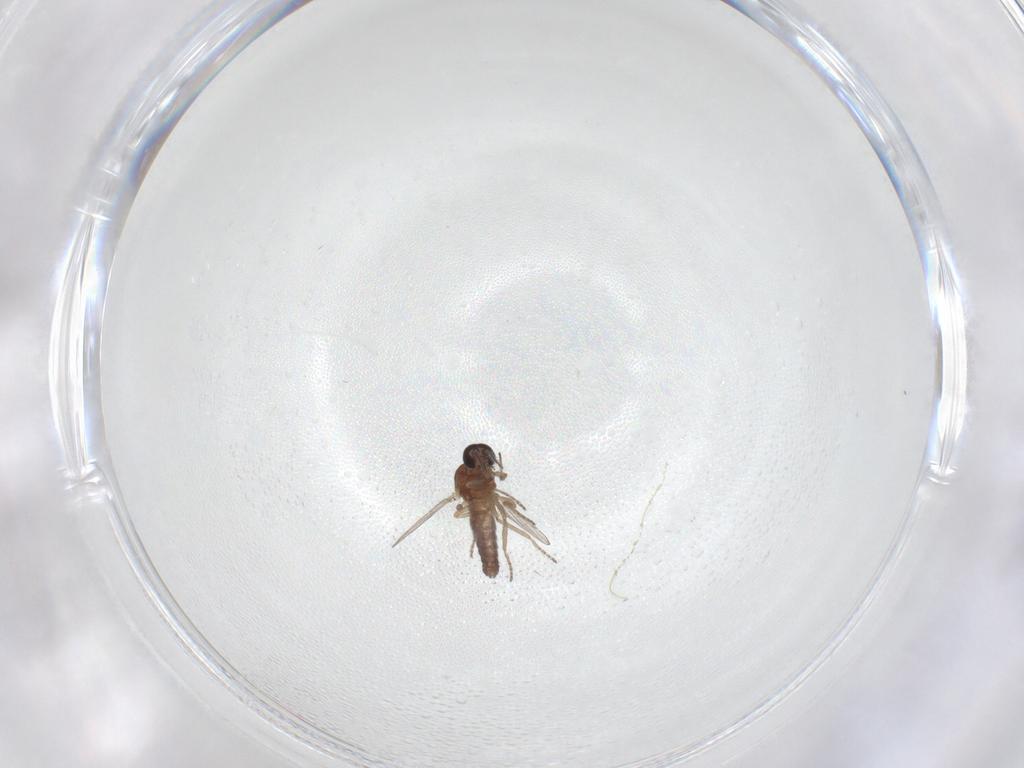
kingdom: Animalia
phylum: Arthropoda
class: Insecta
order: Diptera
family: Ceratopogonidae
